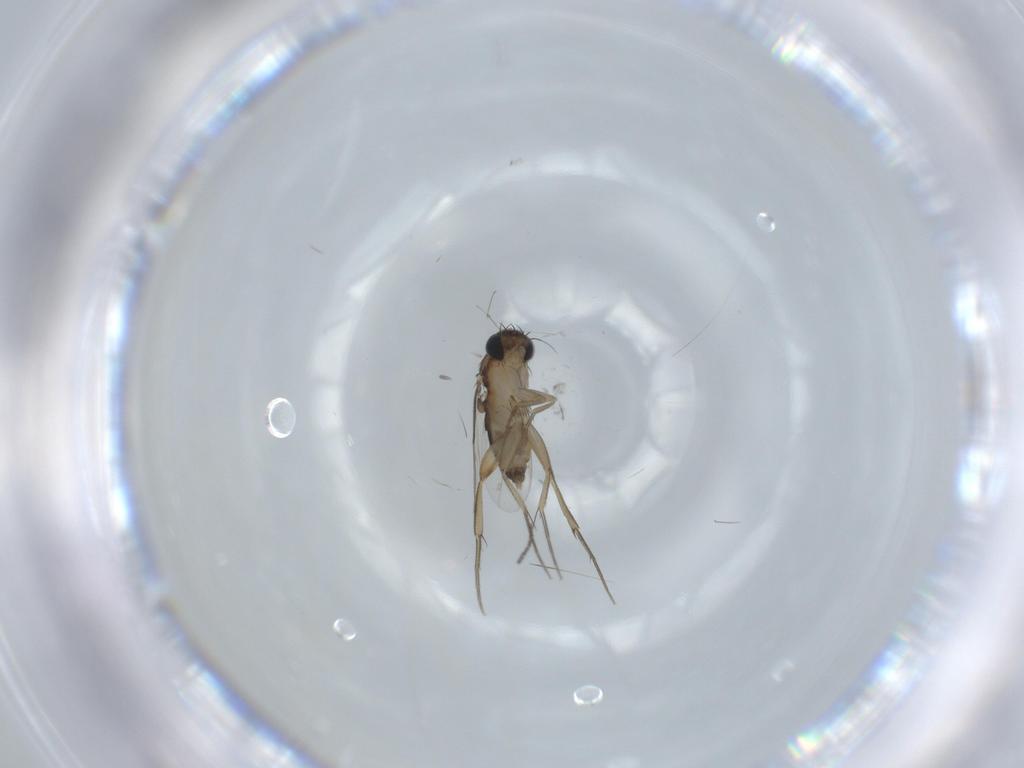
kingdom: Animalia
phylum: Arthropoda
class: Insecta
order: Diptera
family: Phoridae
